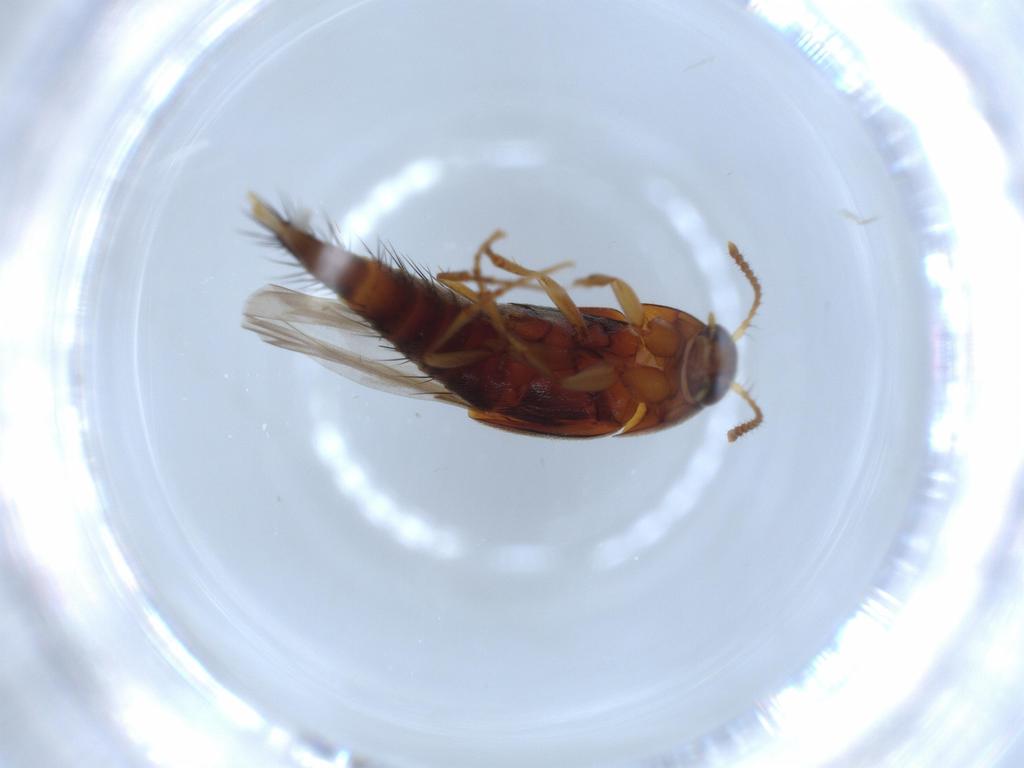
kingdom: Animalia
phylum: Arthropoda
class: Insecta
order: Coleoptera
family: Staphylinidae
